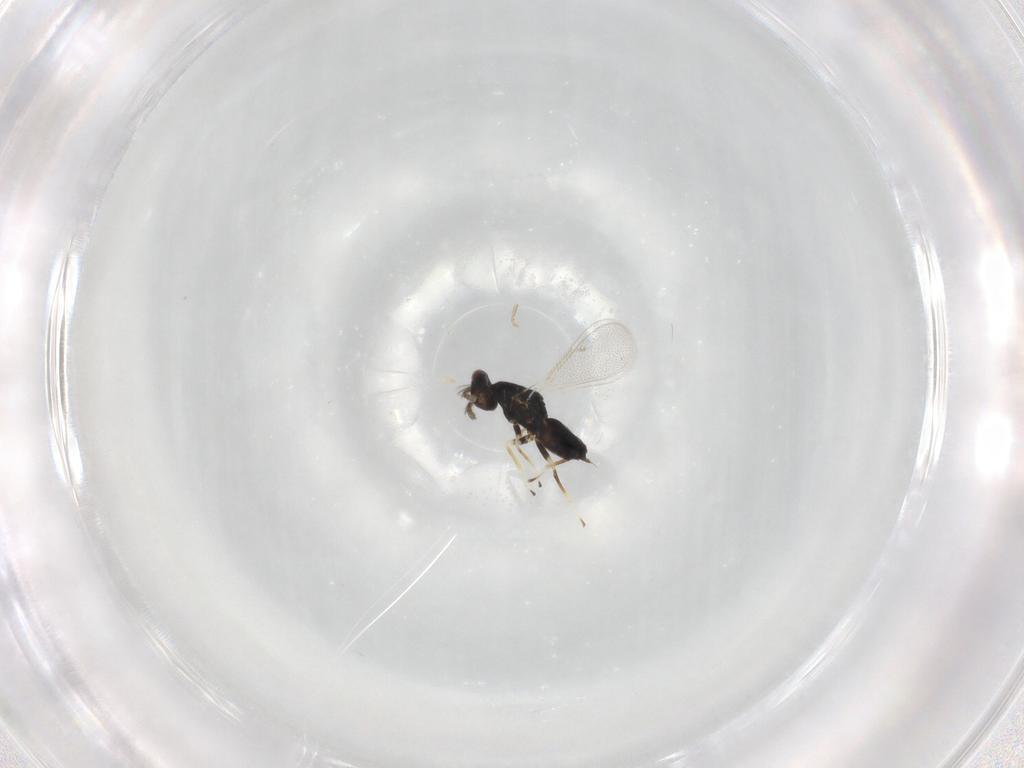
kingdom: Animalia
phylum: Arthropoda
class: Insecta
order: Hymenoptera
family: Eulophidae
